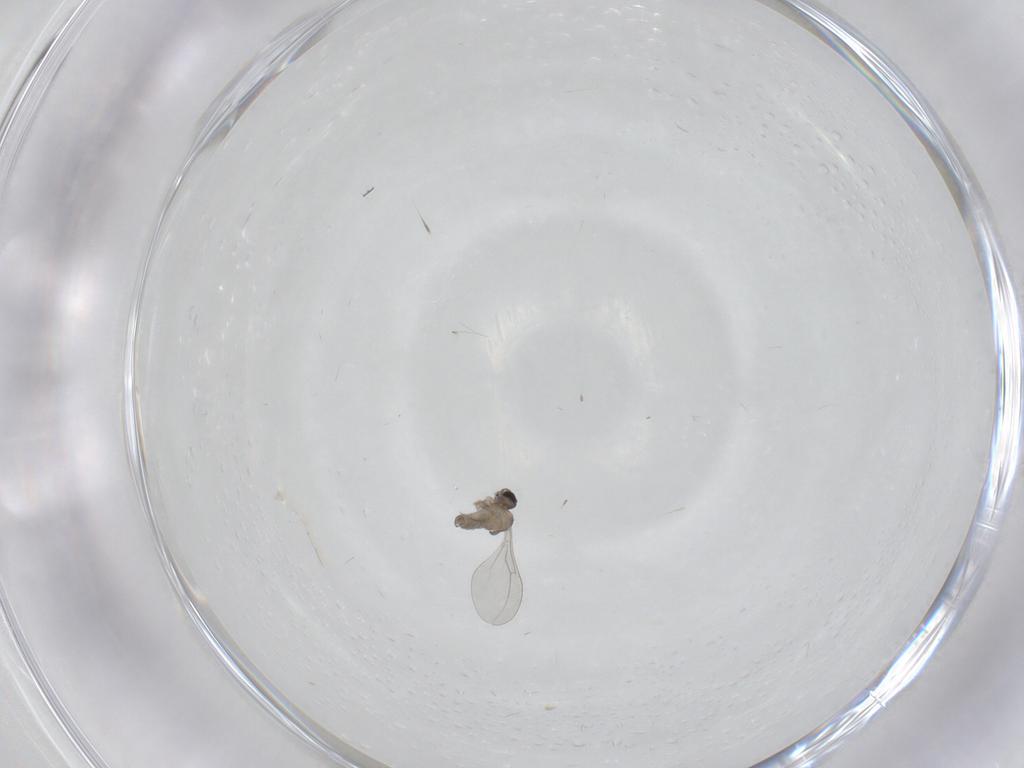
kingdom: Animalia
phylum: Arthropoda
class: Insecta
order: Diptera
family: Cecidomyiidae
